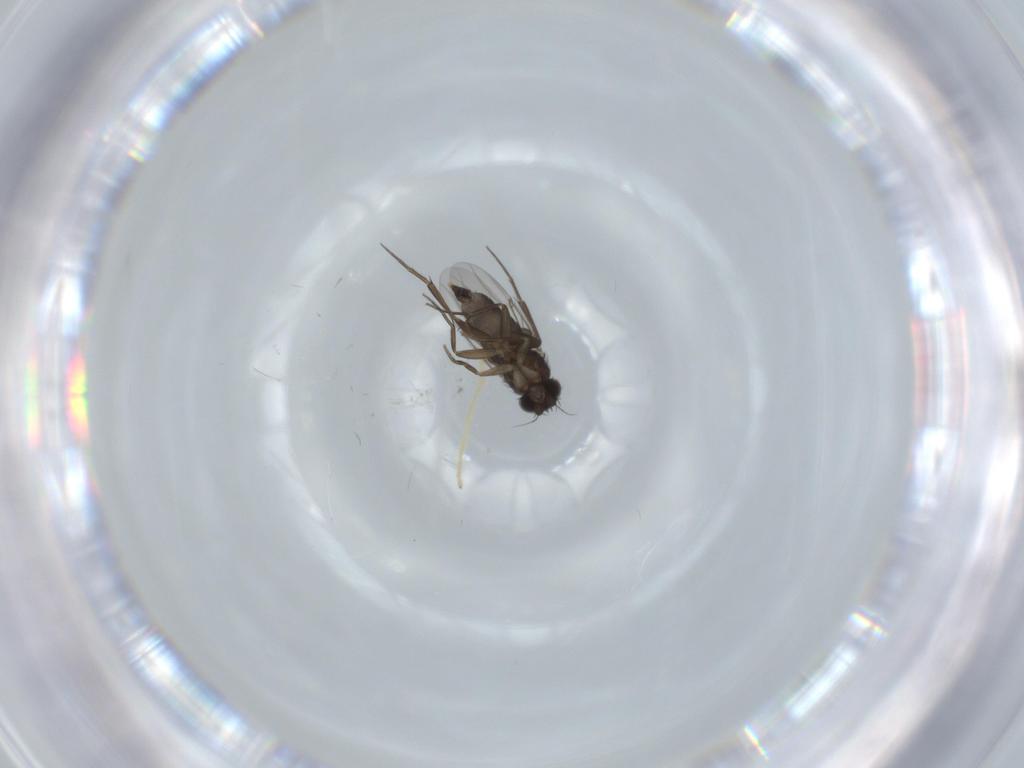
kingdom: Animalia
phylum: Arthropoda
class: Insecta
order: Diptera
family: Phoridae
